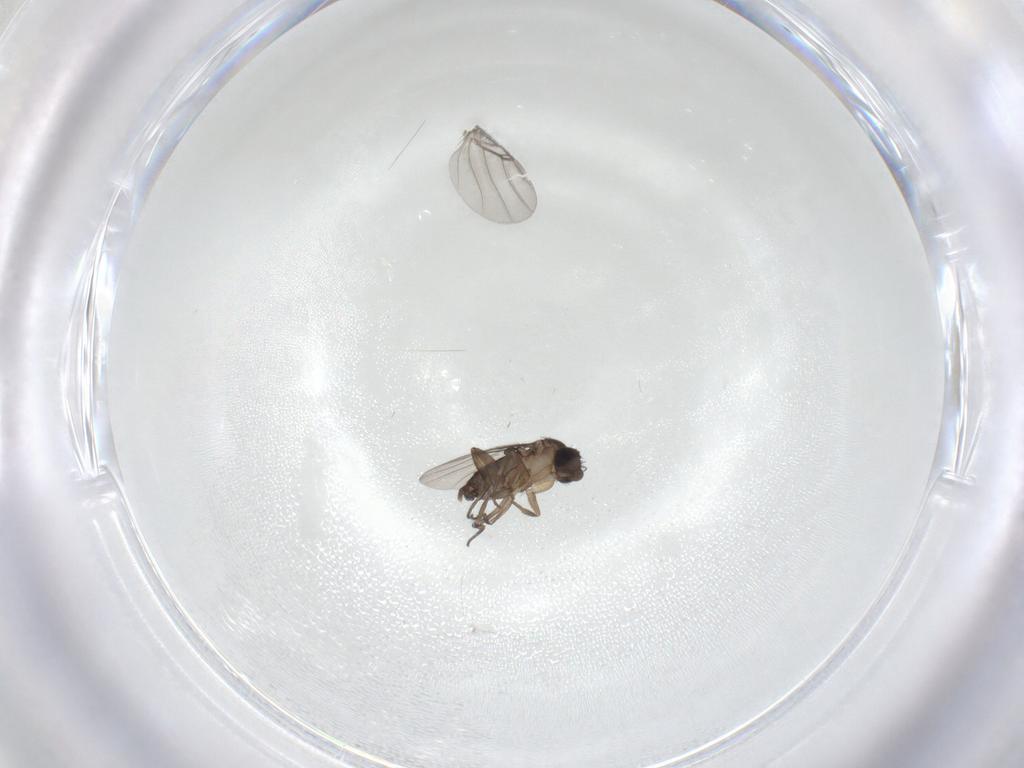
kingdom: Animalia
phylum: Arthropoda
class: Insecta
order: Diptera
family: Phoridae
